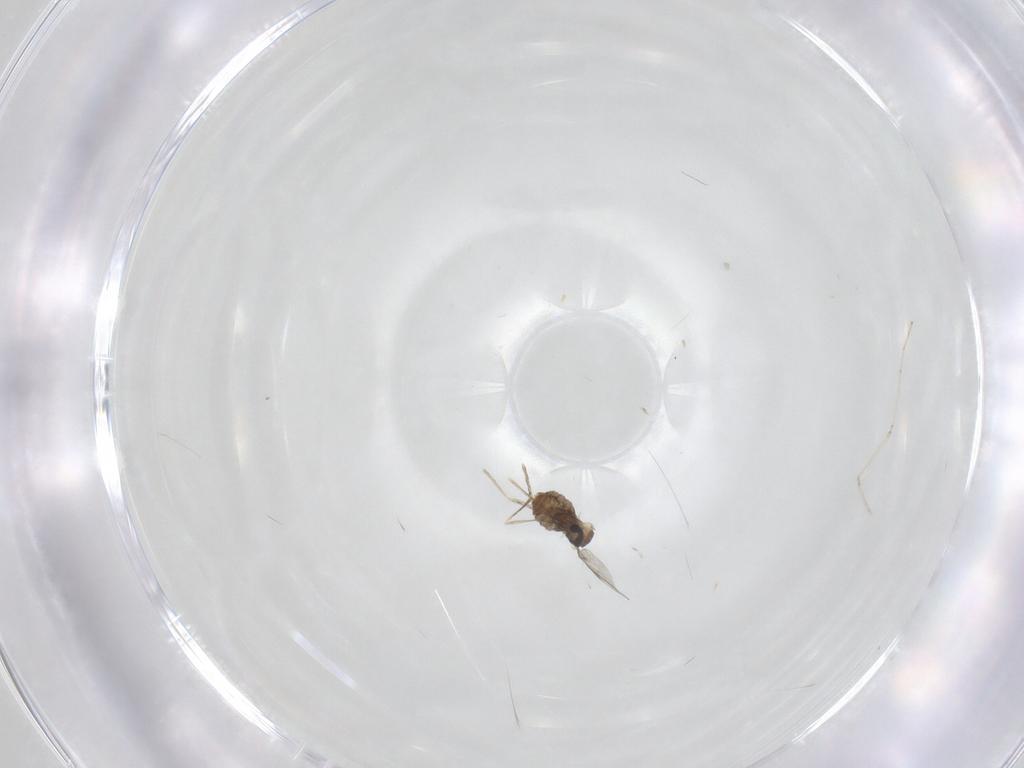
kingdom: Animalia
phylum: Arthropoda
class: Insecta
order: Diptera
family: Cecidomyiidae
